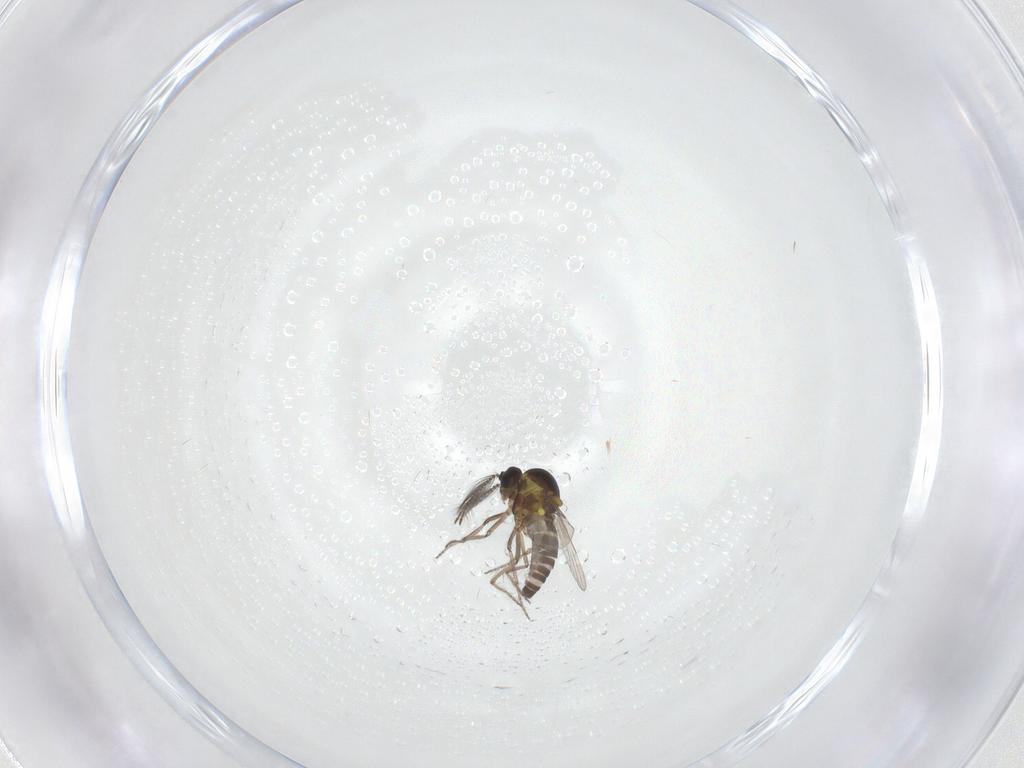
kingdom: Animalia
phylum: Arthropoda
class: Insecta
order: Diptera
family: Ceratopogonidae
